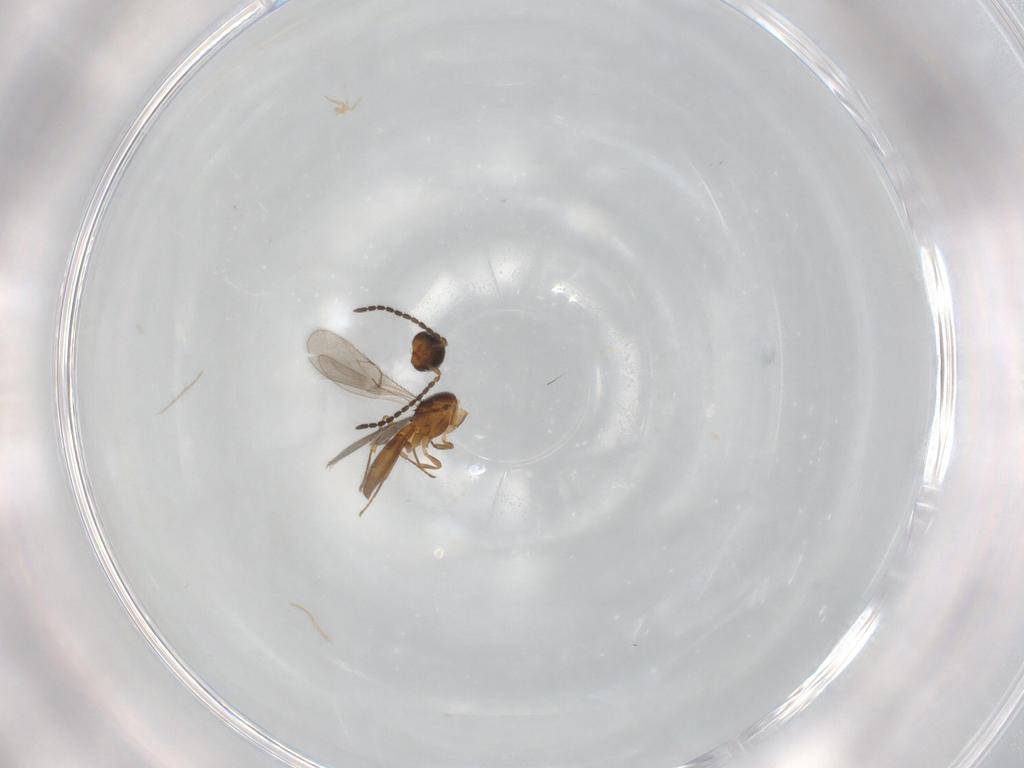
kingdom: Animalia
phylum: Arthropoda
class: Insecta
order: Hymenoptera
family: Scelionidae
